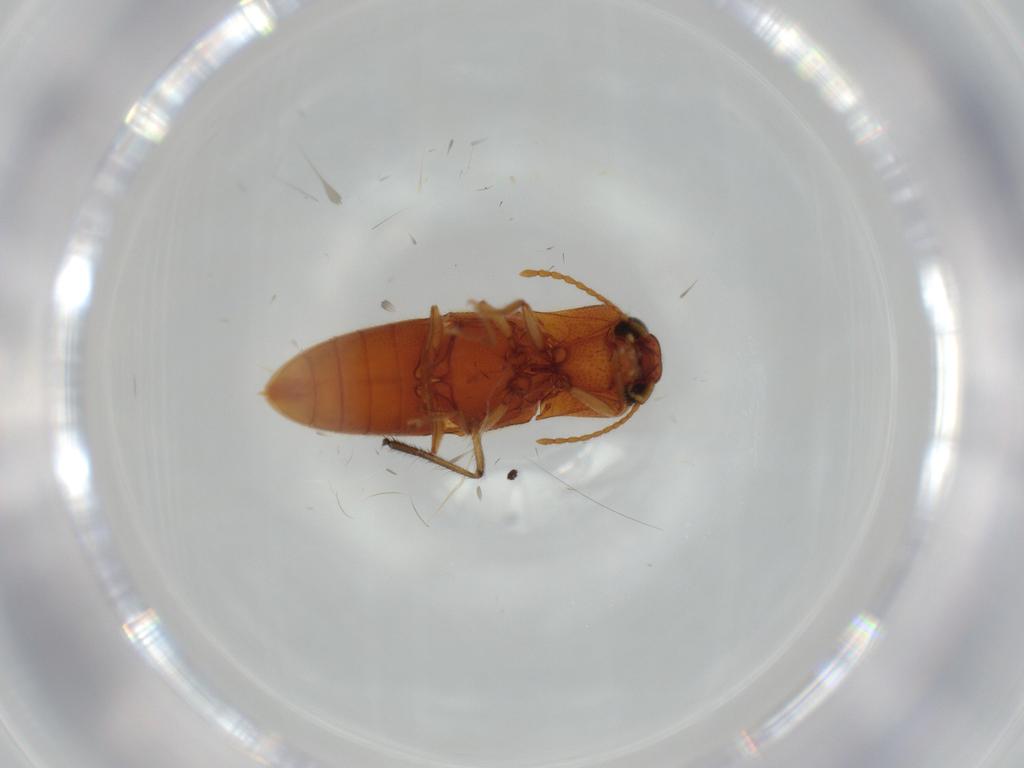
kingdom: Animalia
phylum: Arthropoda
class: Insecta
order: Coleoptera
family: Elateridae
